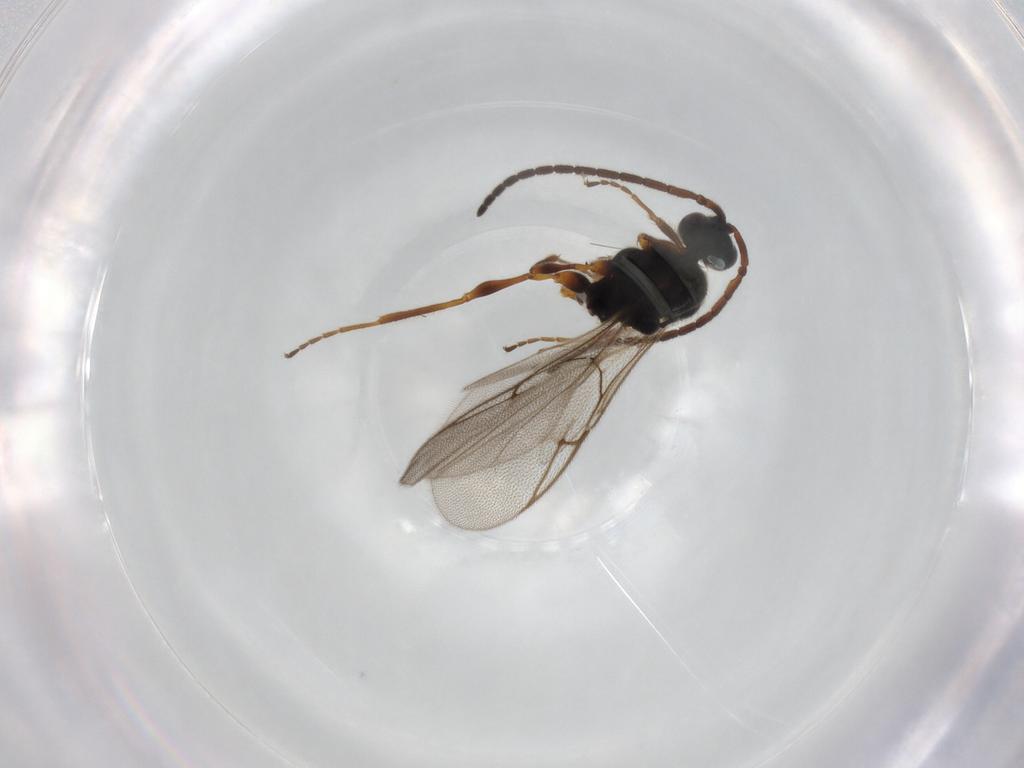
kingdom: Animalia
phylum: Arthropoda
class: Insecta
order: Hymenoptera
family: Diapriidae
